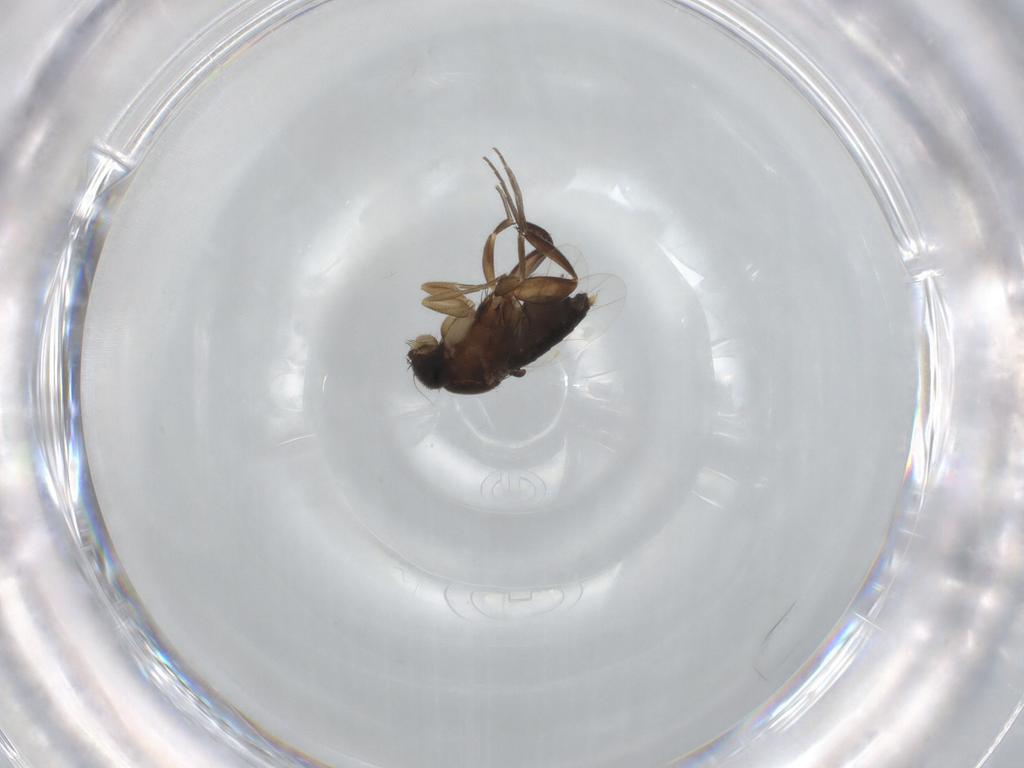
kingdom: Animalia
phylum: Arthropoda
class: Insecta
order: Diptera
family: Phoridae
